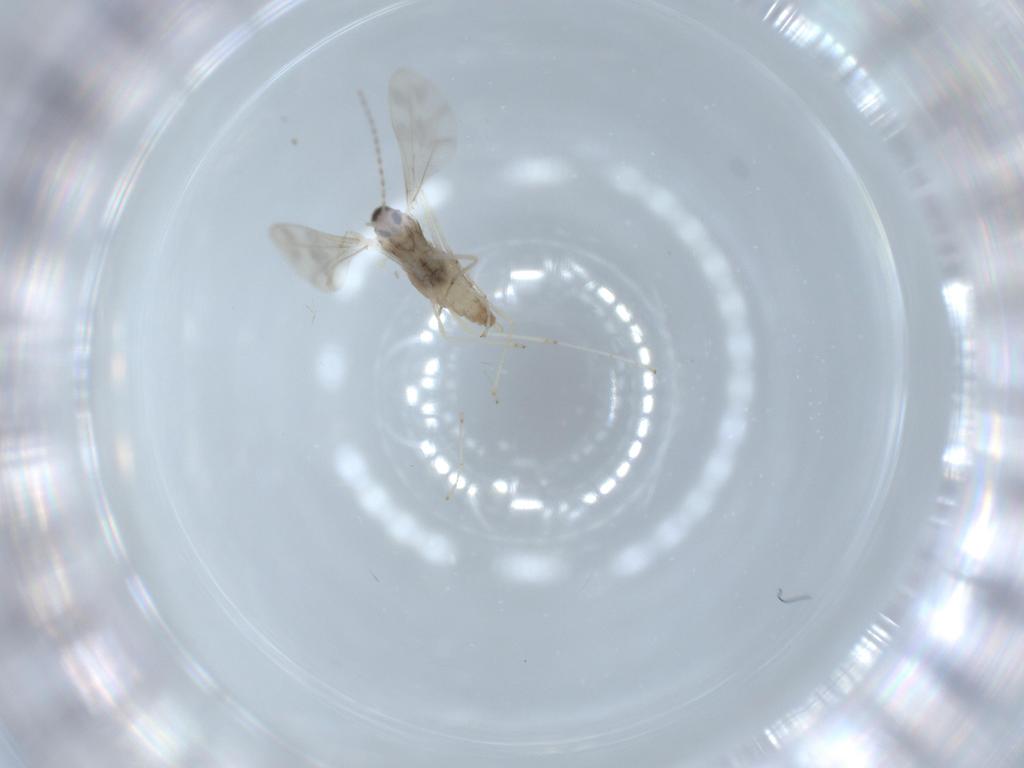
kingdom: Animalia
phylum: Arthropoda
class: Insecta
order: Diptera
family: Cecidomyiidae
